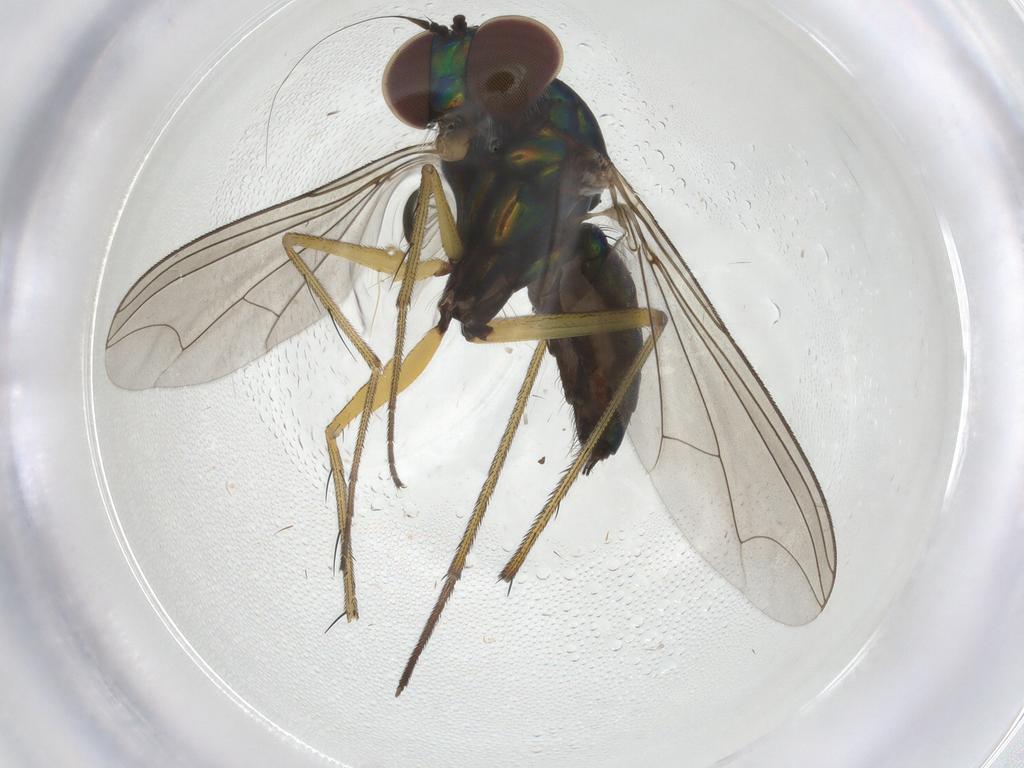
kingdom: Animalia
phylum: Arthropoda
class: Insecta
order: Diptera
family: Dolichopodidae
